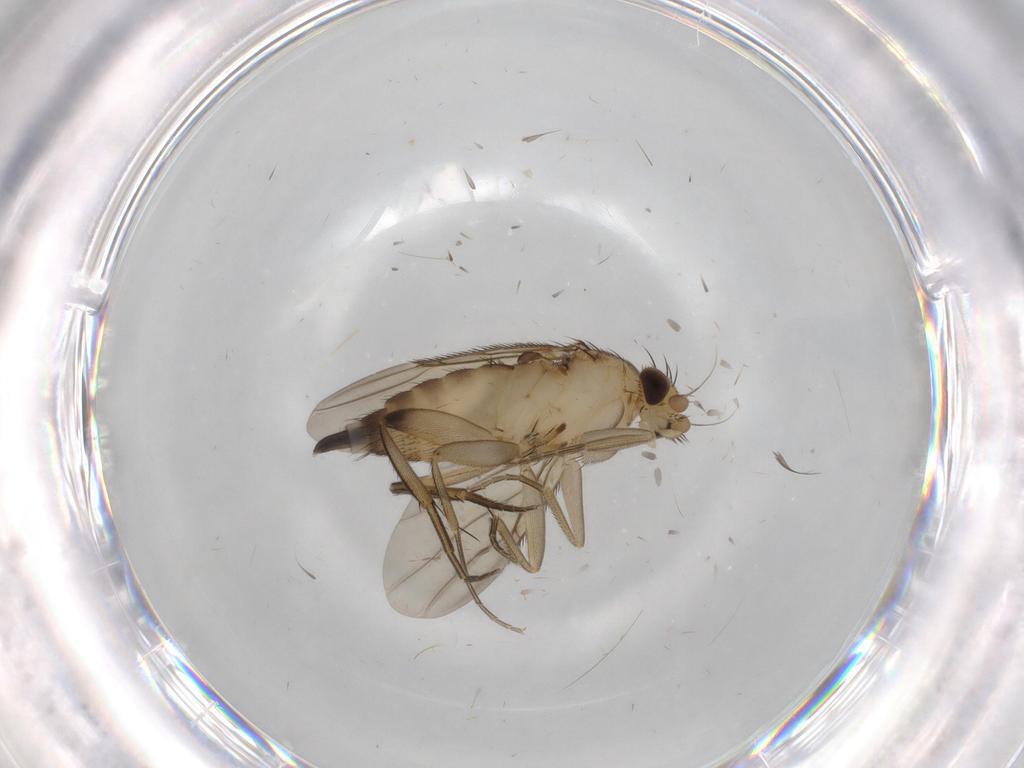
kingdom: Animalia
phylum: Arthropoda
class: Insecta
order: Diptera
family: Phoridae
